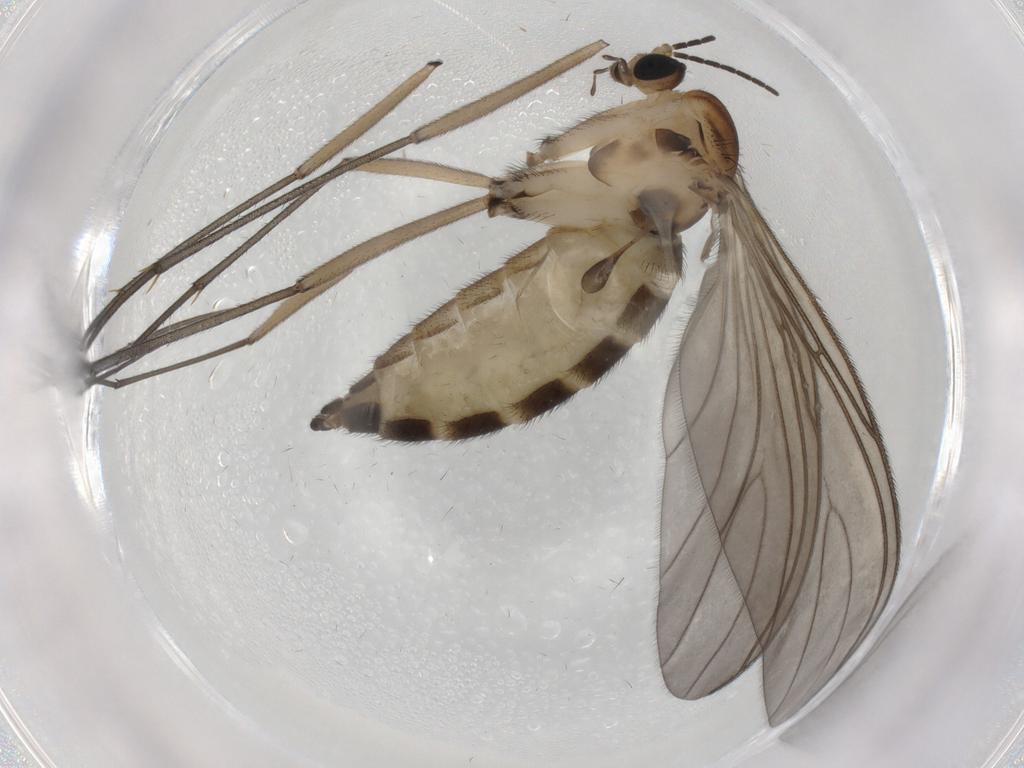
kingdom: Animalia
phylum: Arthropoda
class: Insecta
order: Diptera
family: Sciaridae
